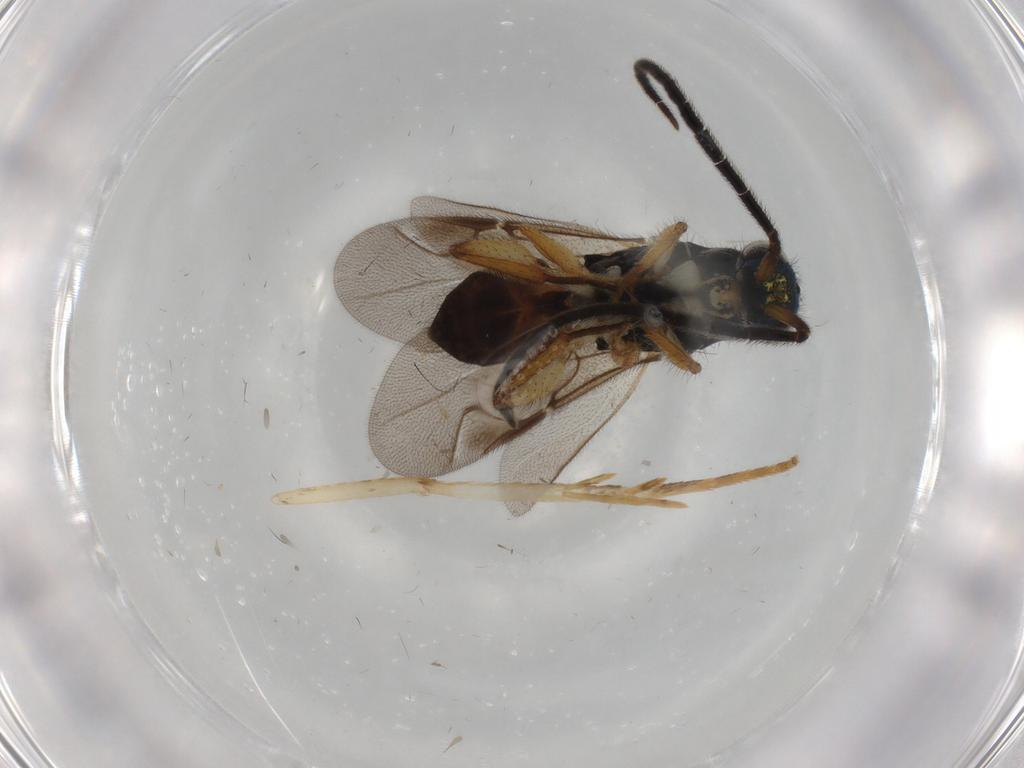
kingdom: Animalia
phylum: Arthropoda
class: Insecta
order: Hymenoptera
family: Chrysididae
